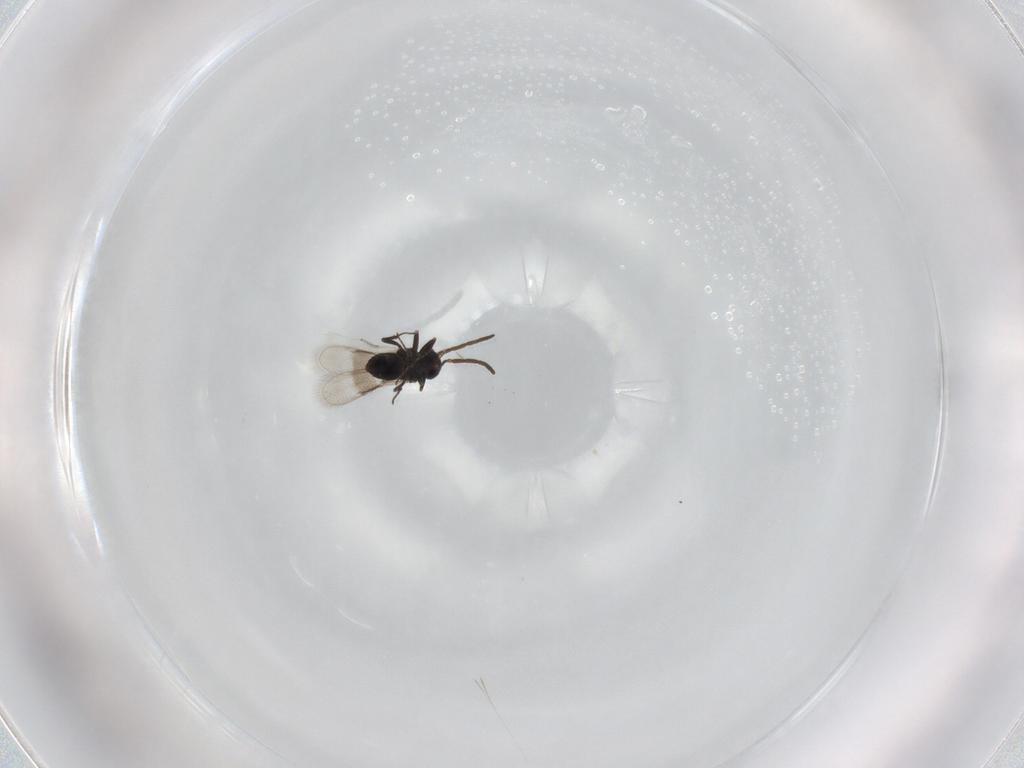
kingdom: Animalia
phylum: Arthropoda
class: Insecta
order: Hymenoptera
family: Azotidae
